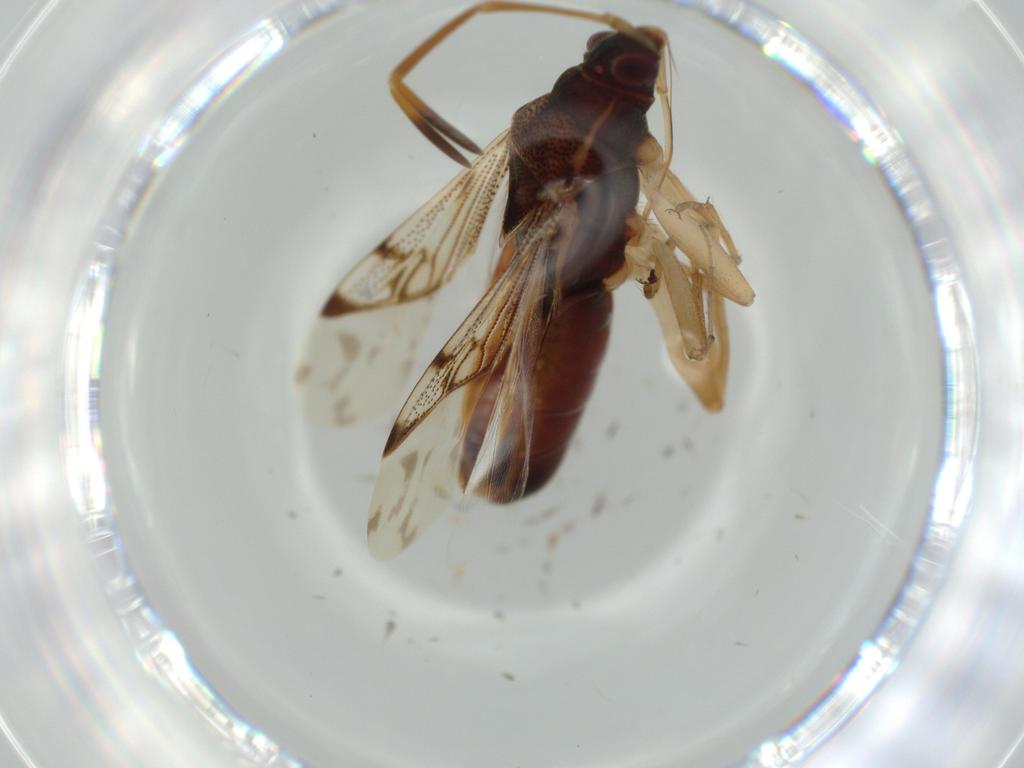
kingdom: Animalia
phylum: Arthropoda
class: Insecta
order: Hemiptera
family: Rhyparochromidae
